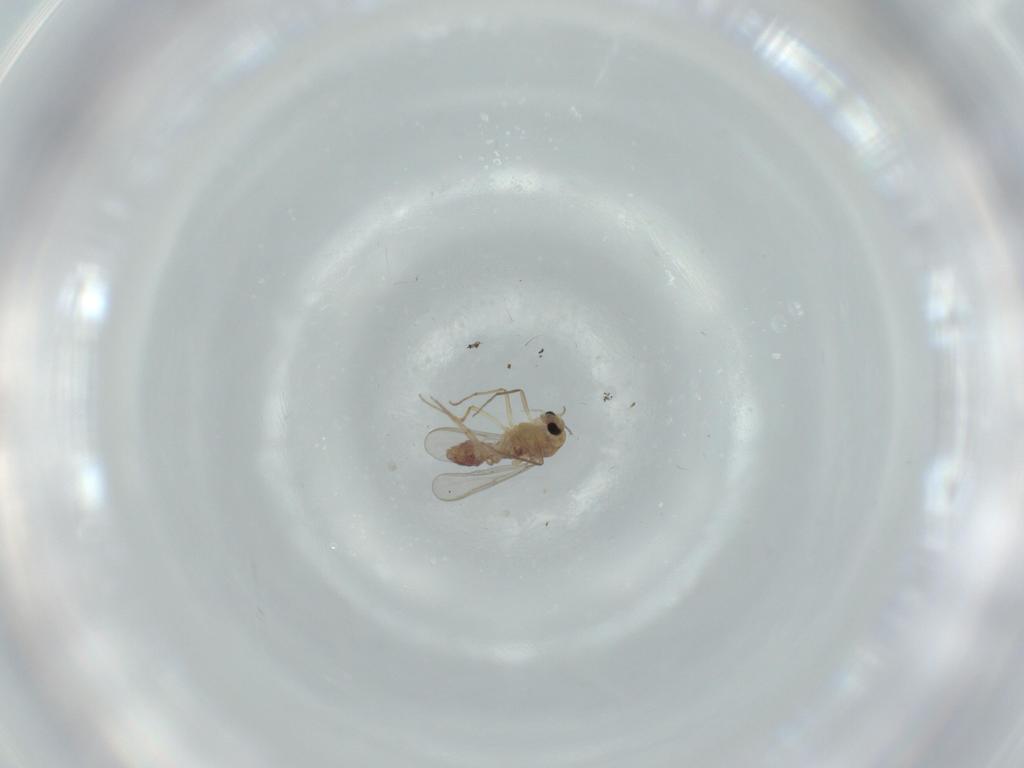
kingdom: Animalia
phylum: Arthropoda
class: Insecta
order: Diptera
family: Chironomidae
